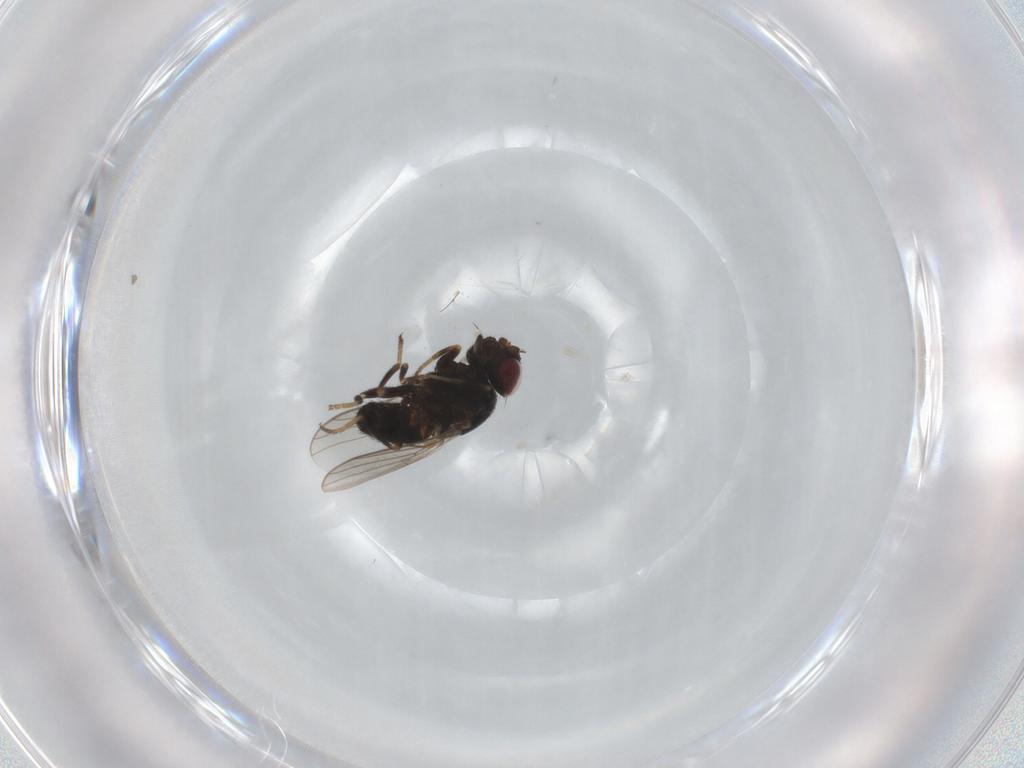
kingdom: Animalia
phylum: Arthropoda
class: Insecta
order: Diptera
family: Chloropidae
